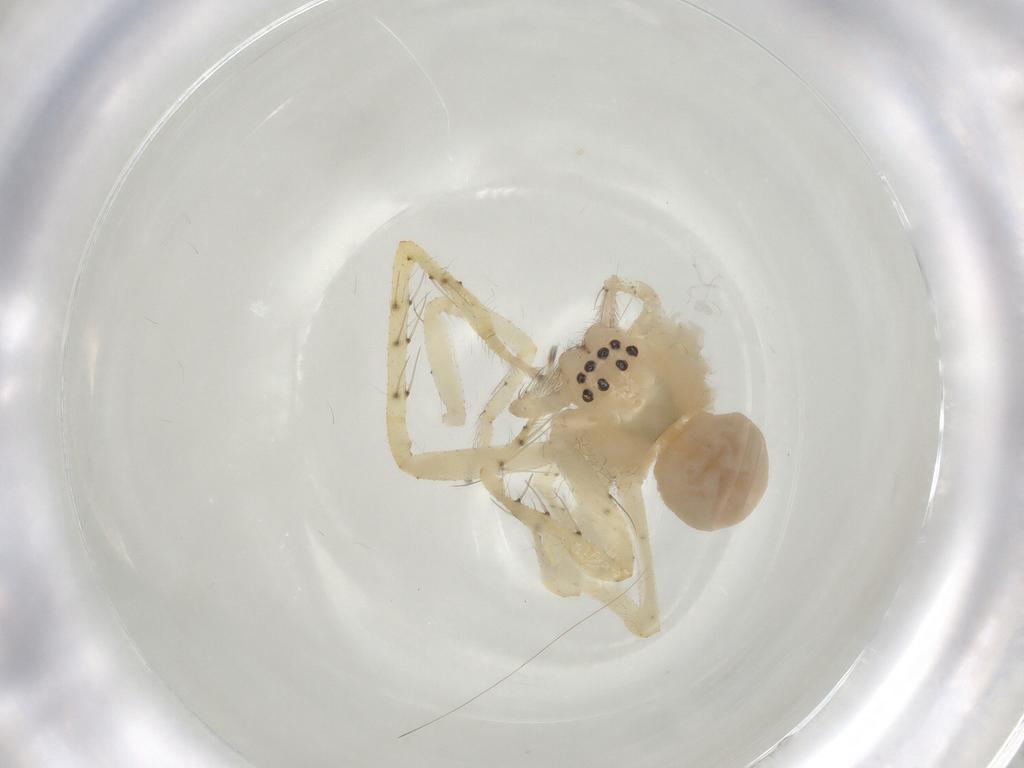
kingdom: Animalia
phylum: Arthropoda
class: Arachnida
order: Araneae
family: Sparassidae
